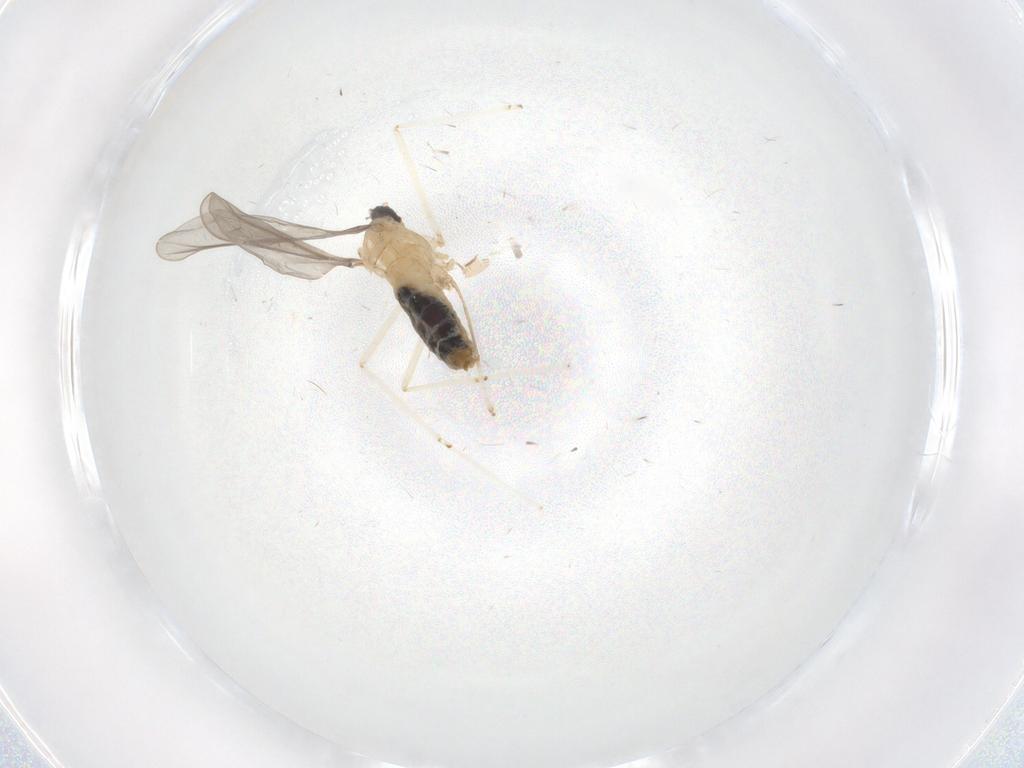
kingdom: Animalia
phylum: Arthropoda
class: Insecta
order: Diptera
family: Cecidomyiidae
